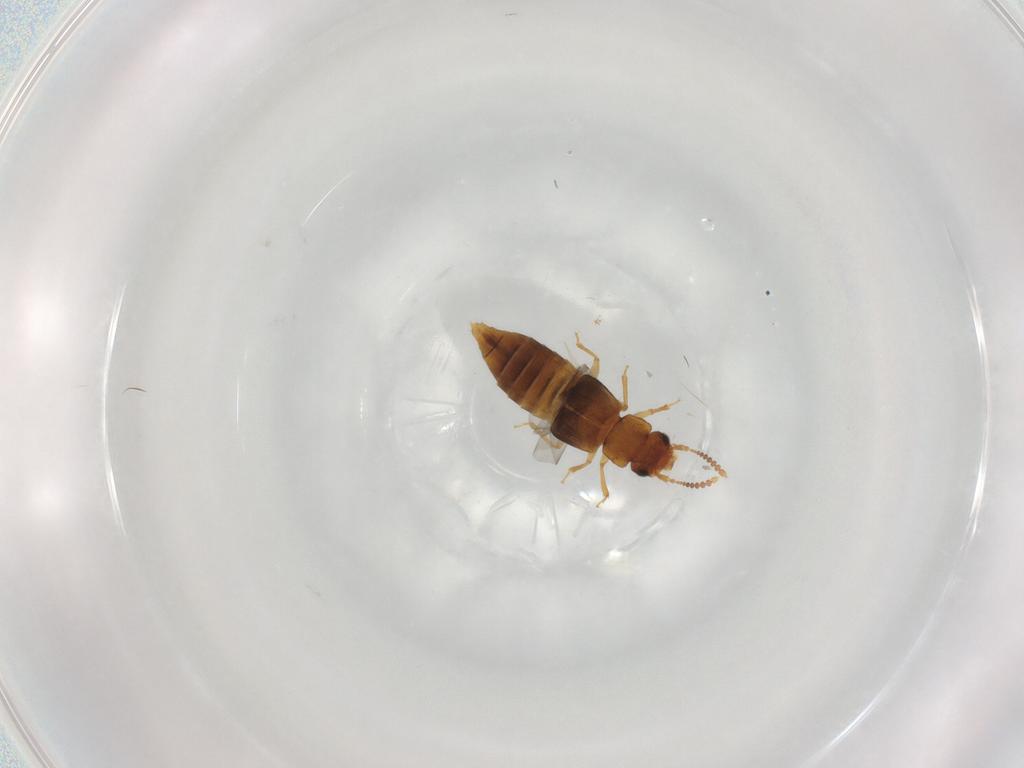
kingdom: Animalia
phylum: Arthropoda
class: Insecta
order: Coleoptera
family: Staphylinidae
